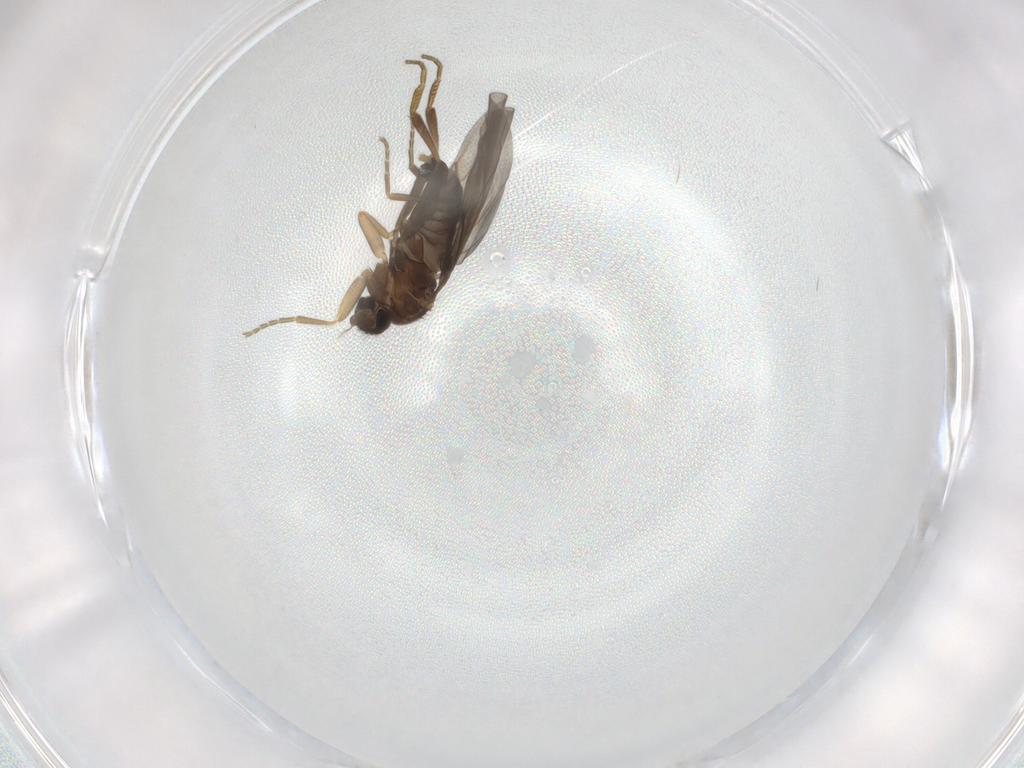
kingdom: Animalia
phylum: Arthropoda
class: Insecta
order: Diptera
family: Phoridae
